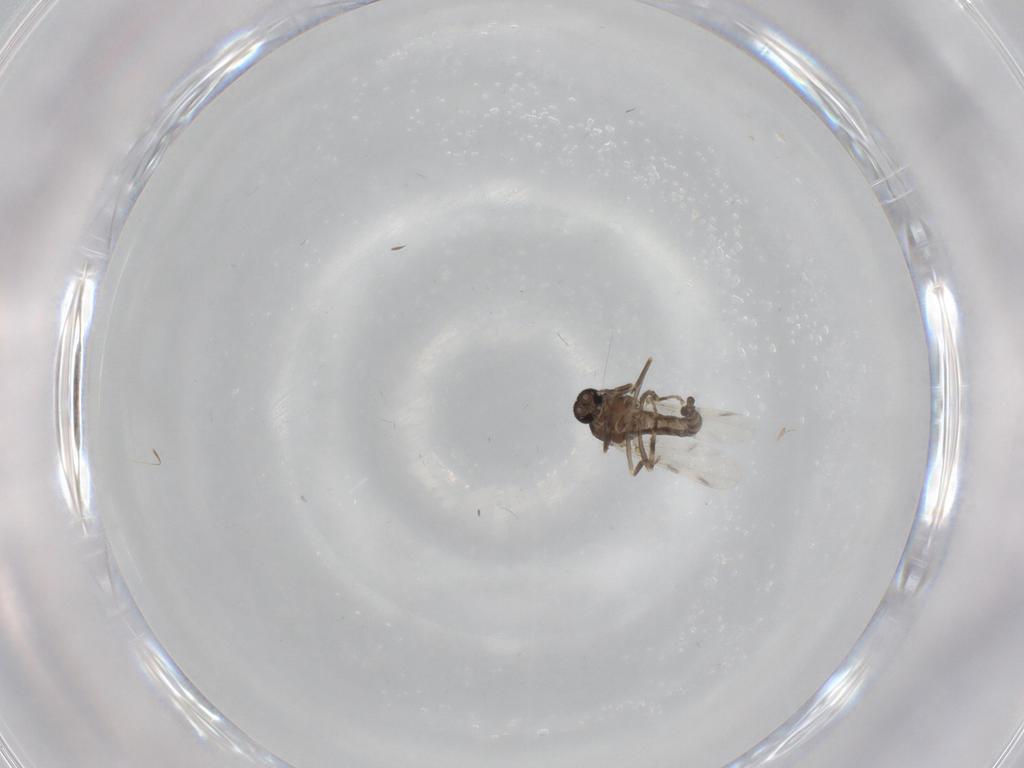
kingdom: Animalia
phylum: Arthropoda
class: Insecta
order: Diptera
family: Ceratopogonidae
